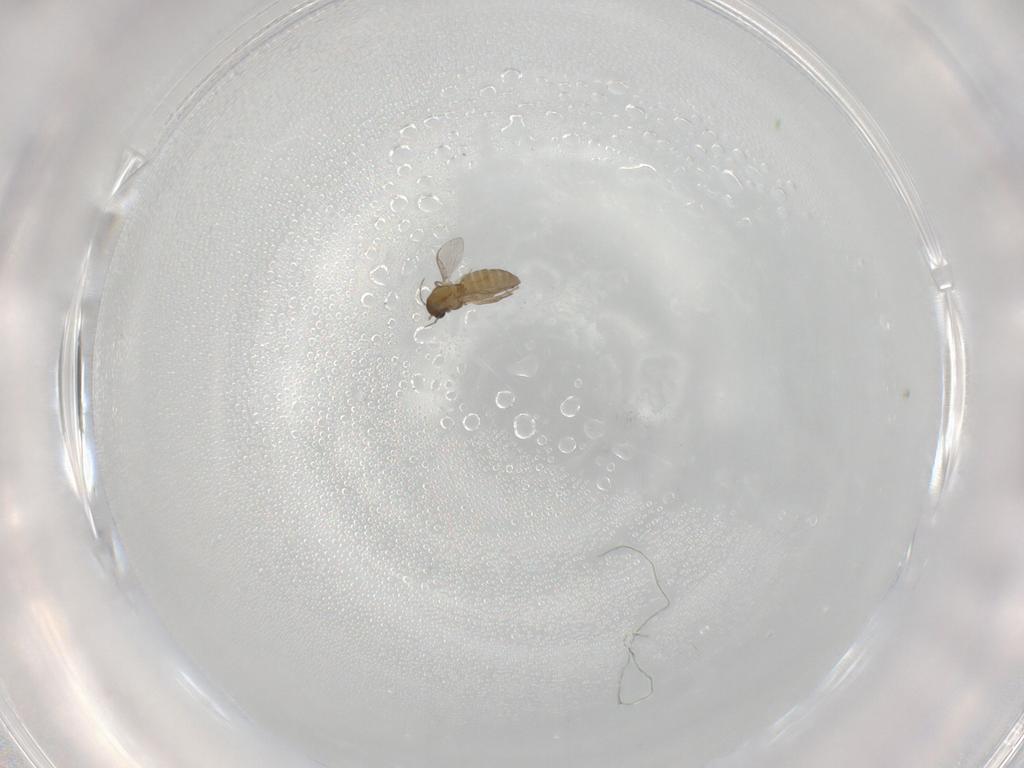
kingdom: Animalia
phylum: Arthropoda
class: Insecta
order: Diptera
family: Chironomidae
